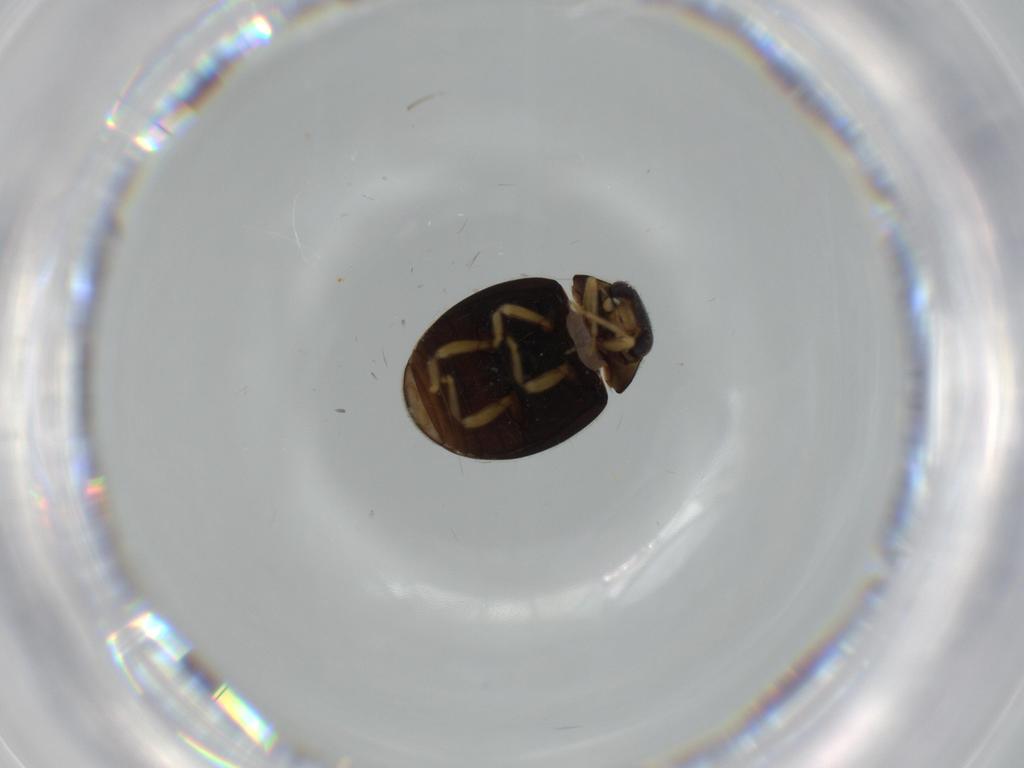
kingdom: Animalia
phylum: Arthropoda
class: Insecta
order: Coleoptera
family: Coccinellidae
